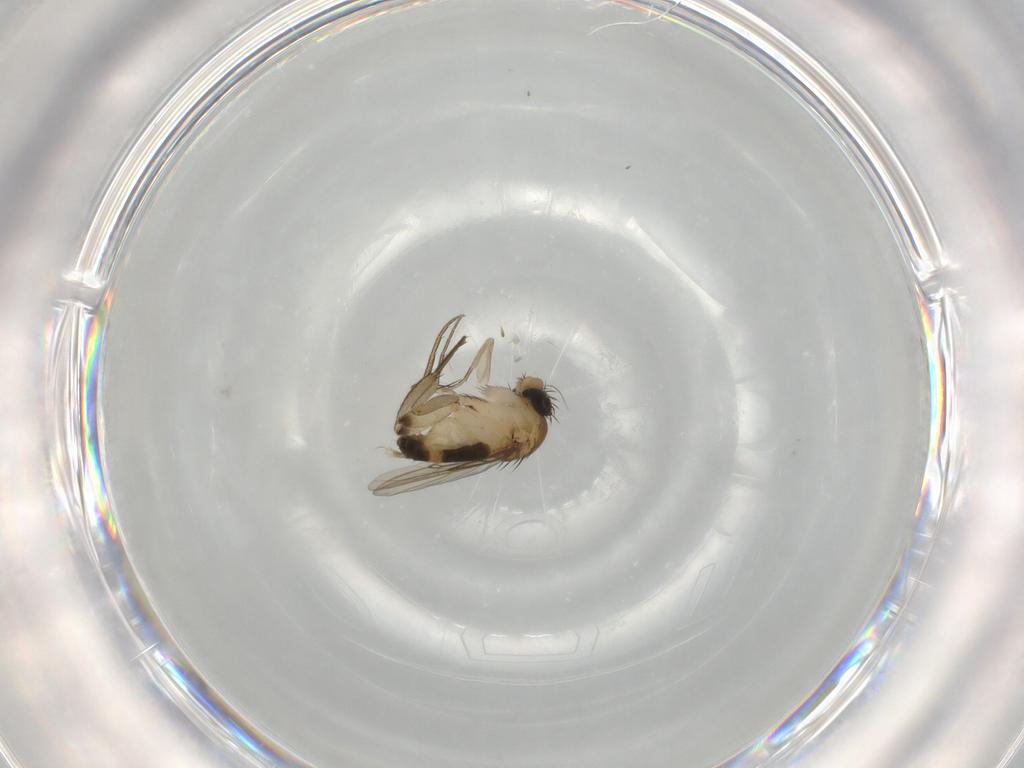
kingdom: Animalia
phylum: Arthropoda
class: Insecta
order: Diptera
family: Phoridae
